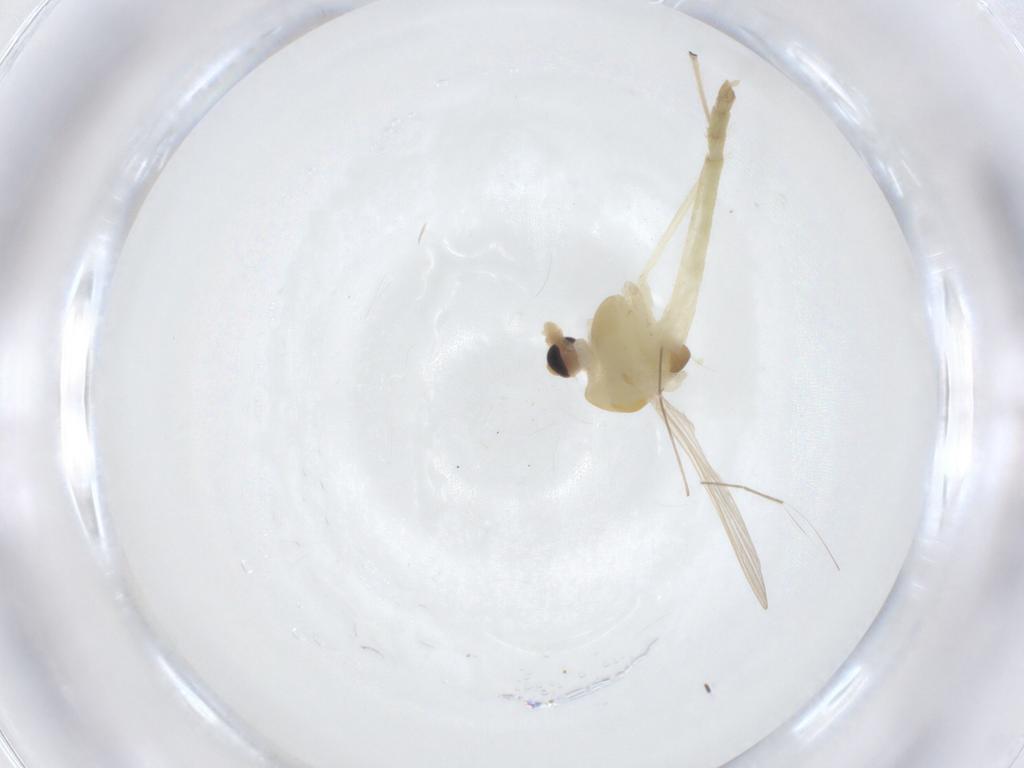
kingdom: Animalia
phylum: Arthropoda
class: Insecta
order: Diptera
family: Chironomidae
